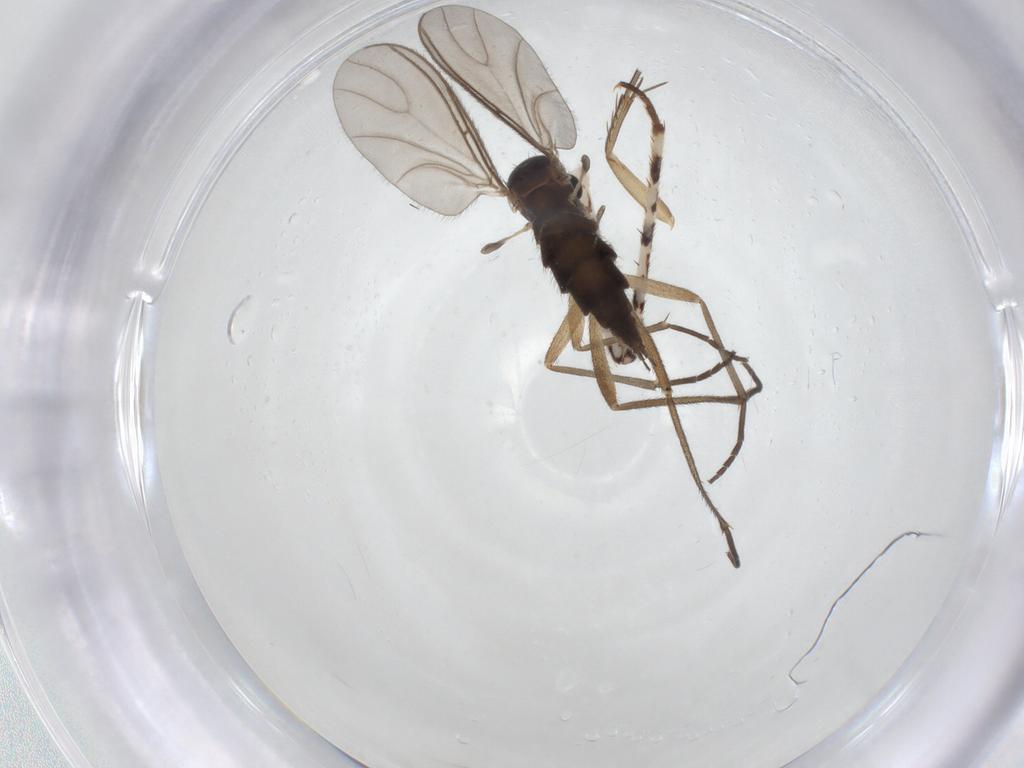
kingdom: Animalia
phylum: Arthropoda
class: Insecta
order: Diptera
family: Sciaridae
